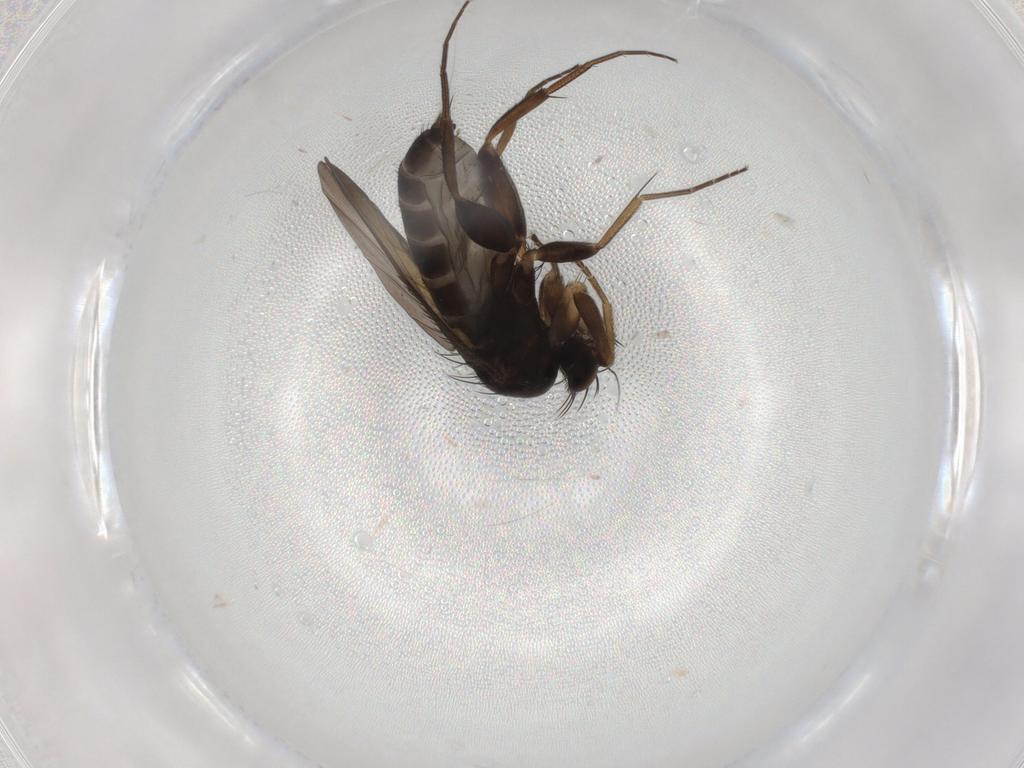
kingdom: Animalia
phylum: Arthropoda
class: Insecta
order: Diptera
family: Phoridae
